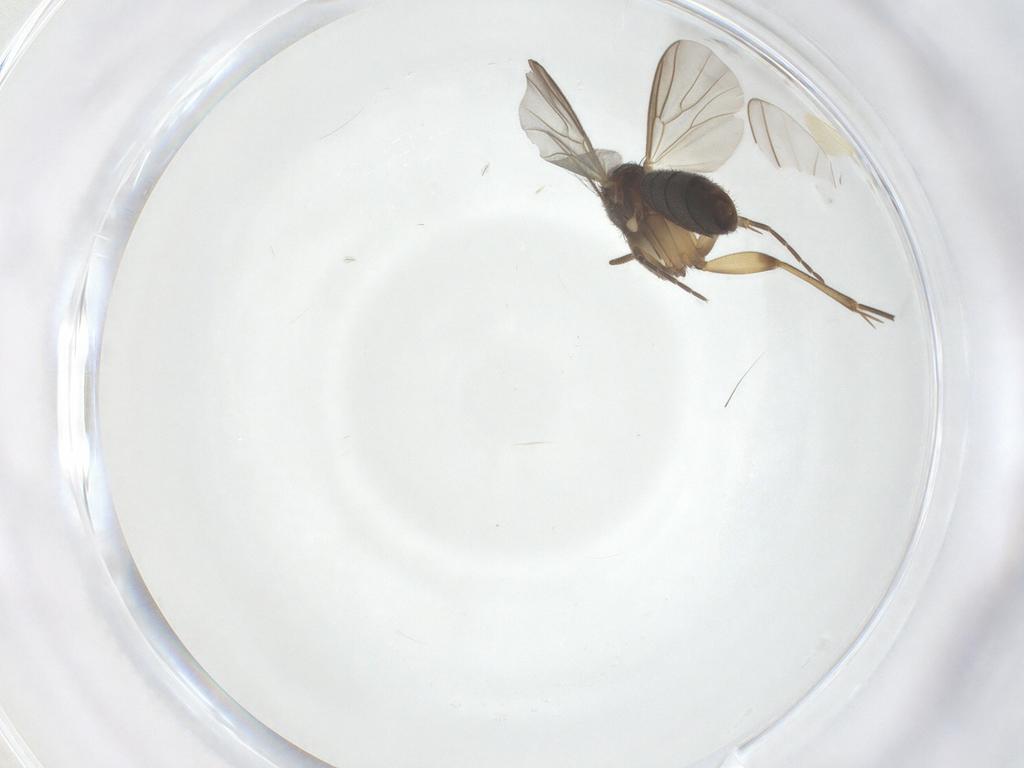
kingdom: Animalia
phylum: Arthropoda
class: Insecta
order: Diptera
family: Mycetophilidae
